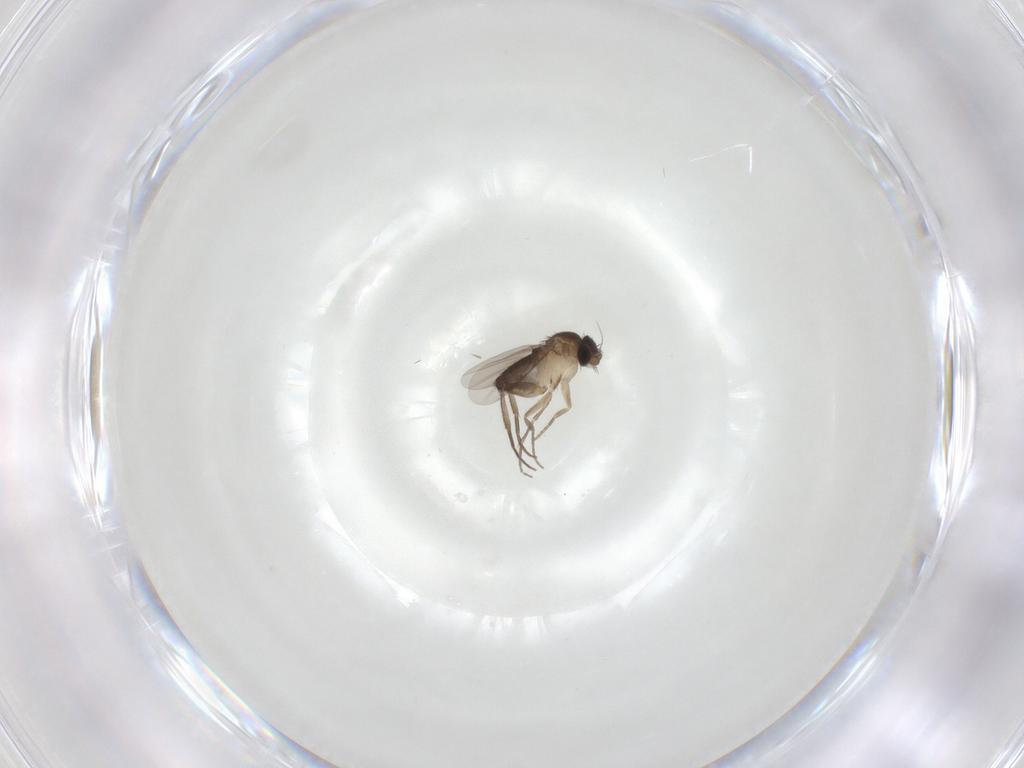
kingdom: Animalia
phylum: Arthropoda
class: Insecta
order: Diptera
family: Phoridae
